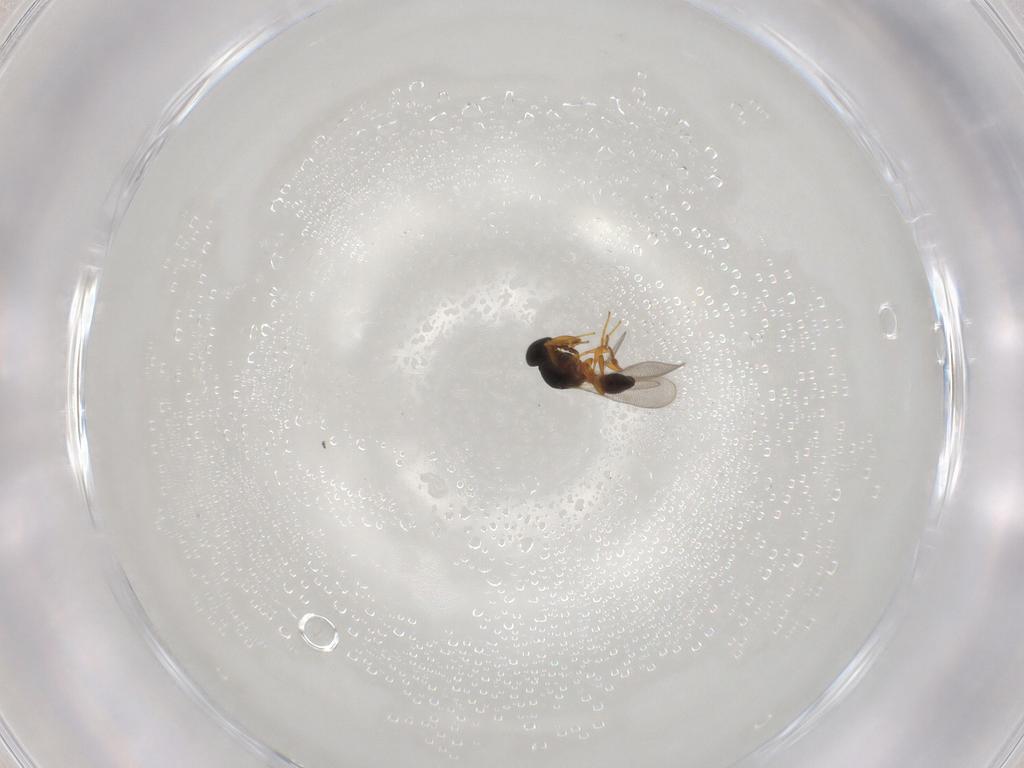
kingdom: Animalia
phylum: Arthropoda
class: Insecta
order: Hymenoptera
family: Platygastridae
